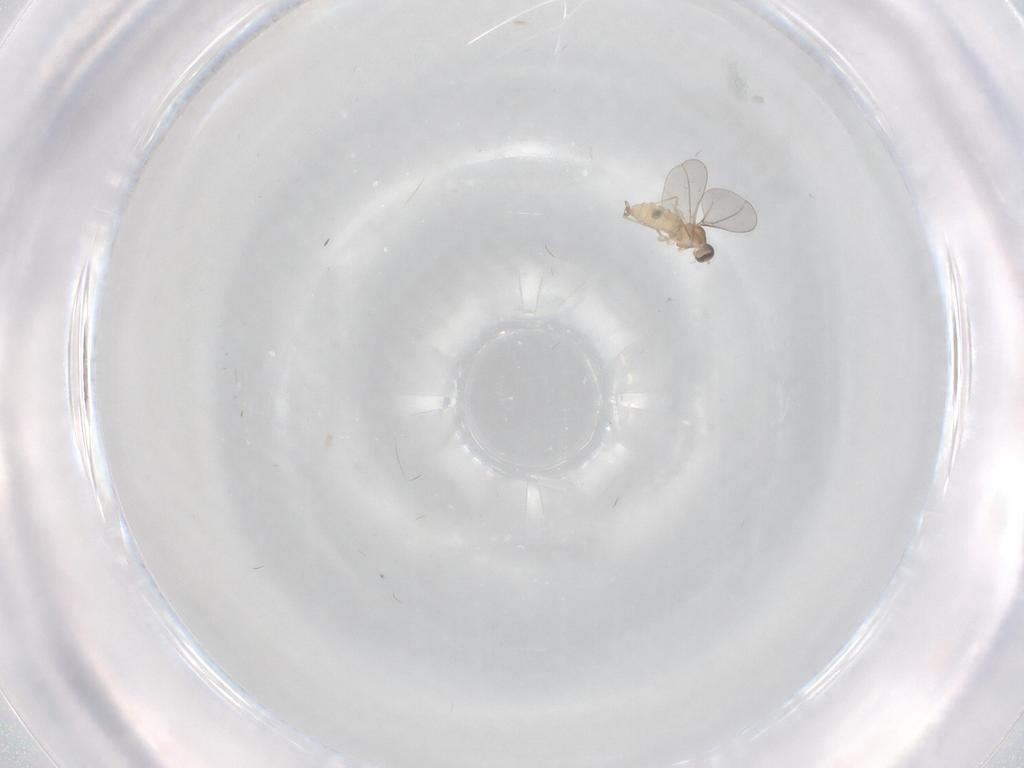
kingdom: Animalia
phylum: Arthropoda
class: Insecta
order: Diptera
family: Cecidomyiidae
